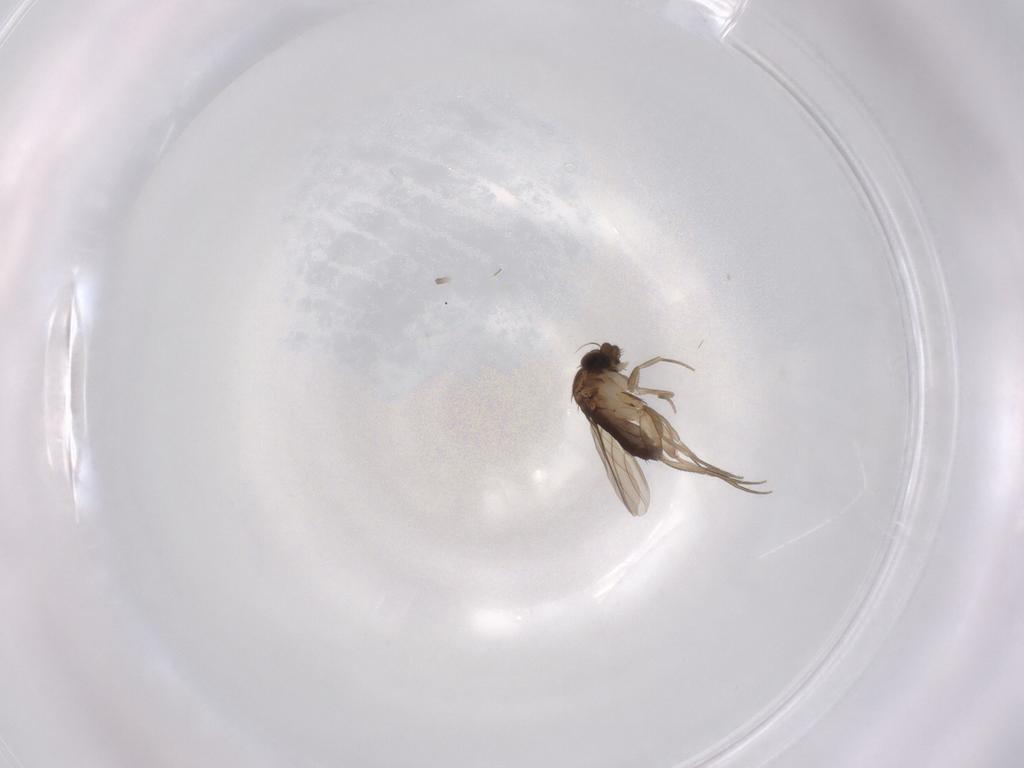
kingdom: Animalia
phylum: Arthropoda
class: Insecta
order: Diptera
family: Phoridae
